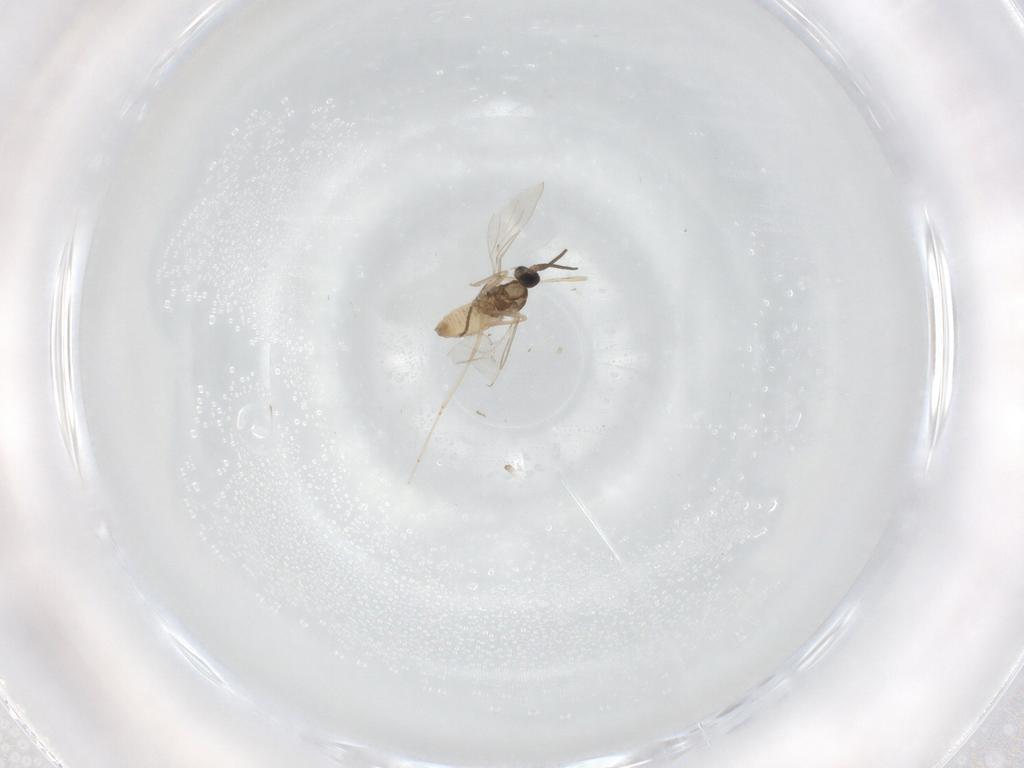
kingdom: Animalia
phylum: Arthropoda
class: Insecta
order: Diptera
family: Cecidomyiidae
